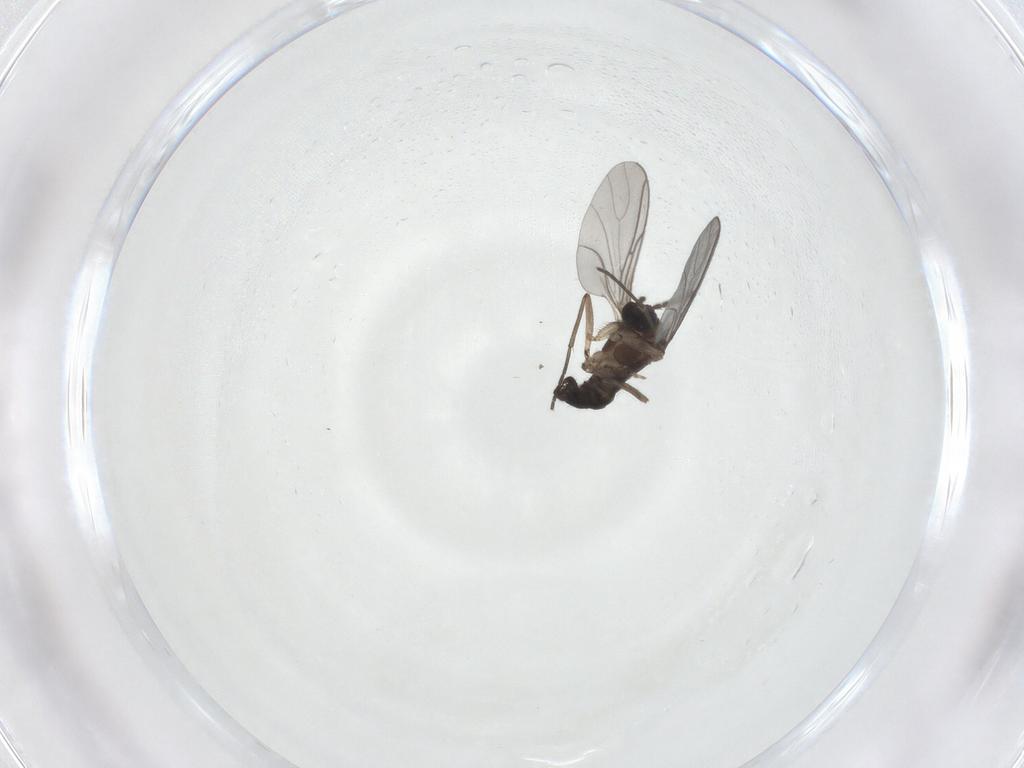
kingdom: Animalia
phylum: Arthropoda
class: Insecta
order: Diptera
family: Sciaridae
